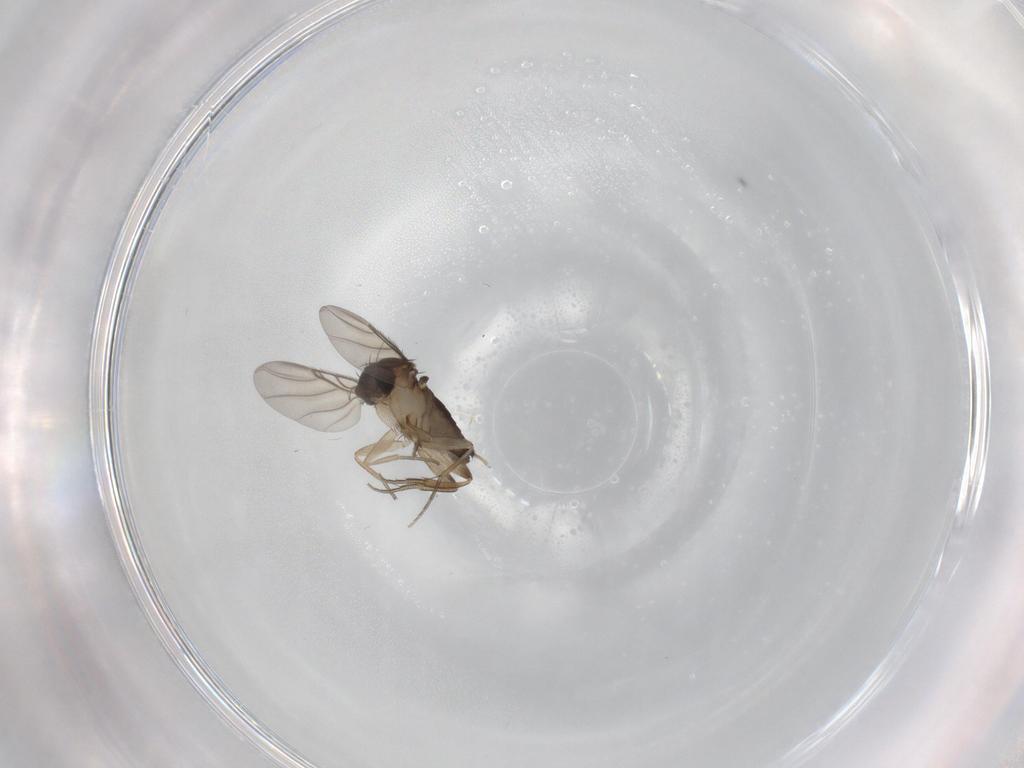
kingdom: Animalia
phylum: Arthropoda
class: Insecta
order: Diptera
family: Cecidomyiidae
